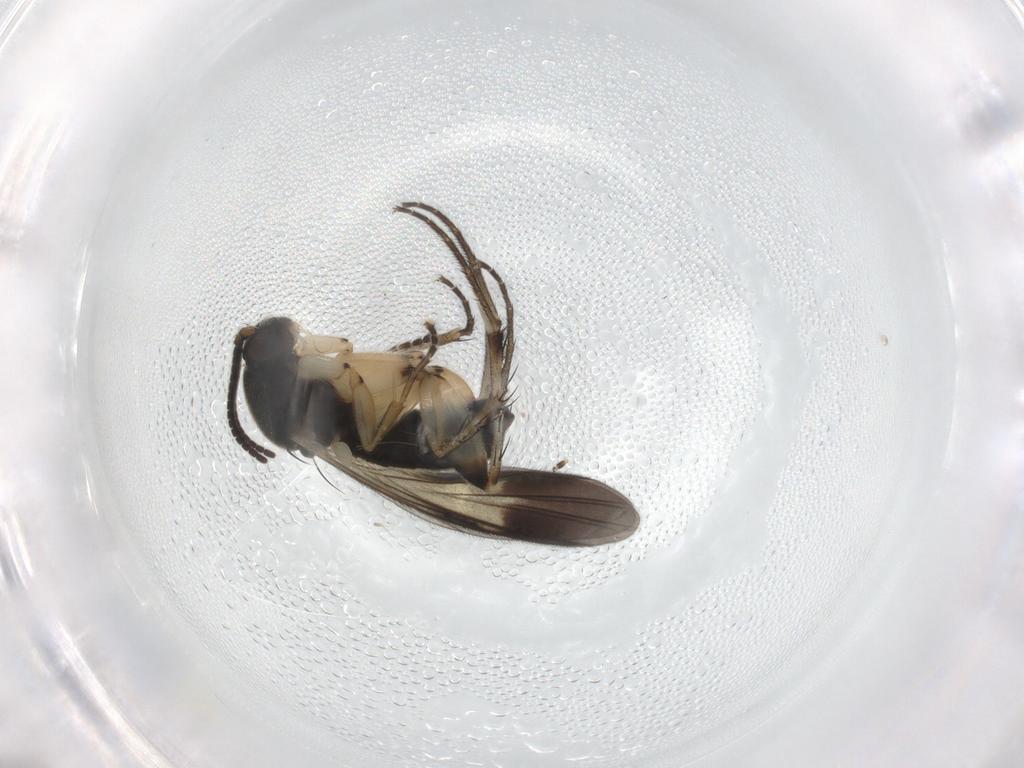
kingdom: Animalia
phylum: Arthropoda
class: Insecta
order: Diptera
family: Mycetophilidae
